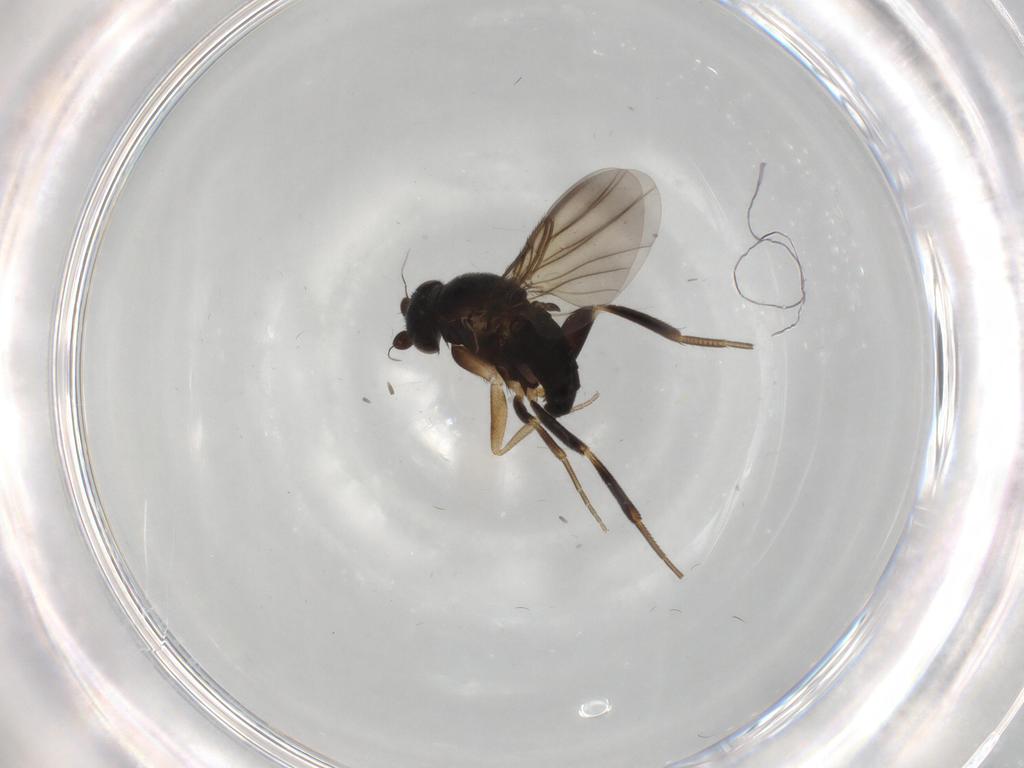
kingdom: Animalia
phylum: Arthropoda
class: Insecta
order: Diptera
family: Phoridae
